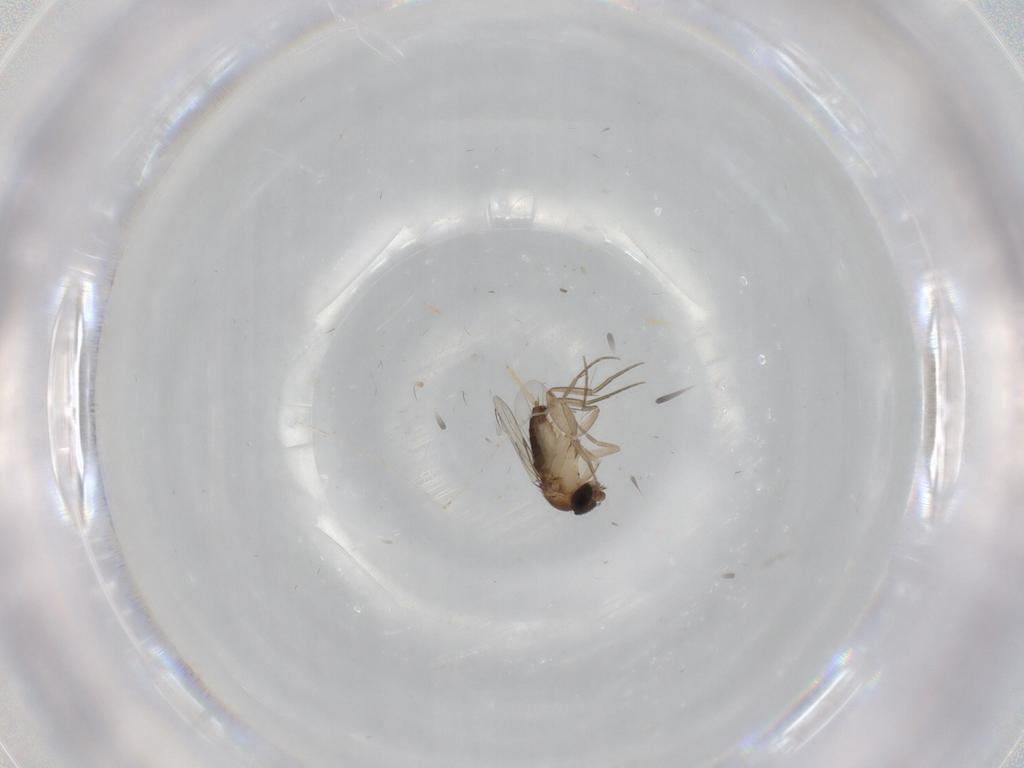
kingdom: Animalia
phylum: Arthropoda
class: Insecta
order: Diptera
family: Phoridae
